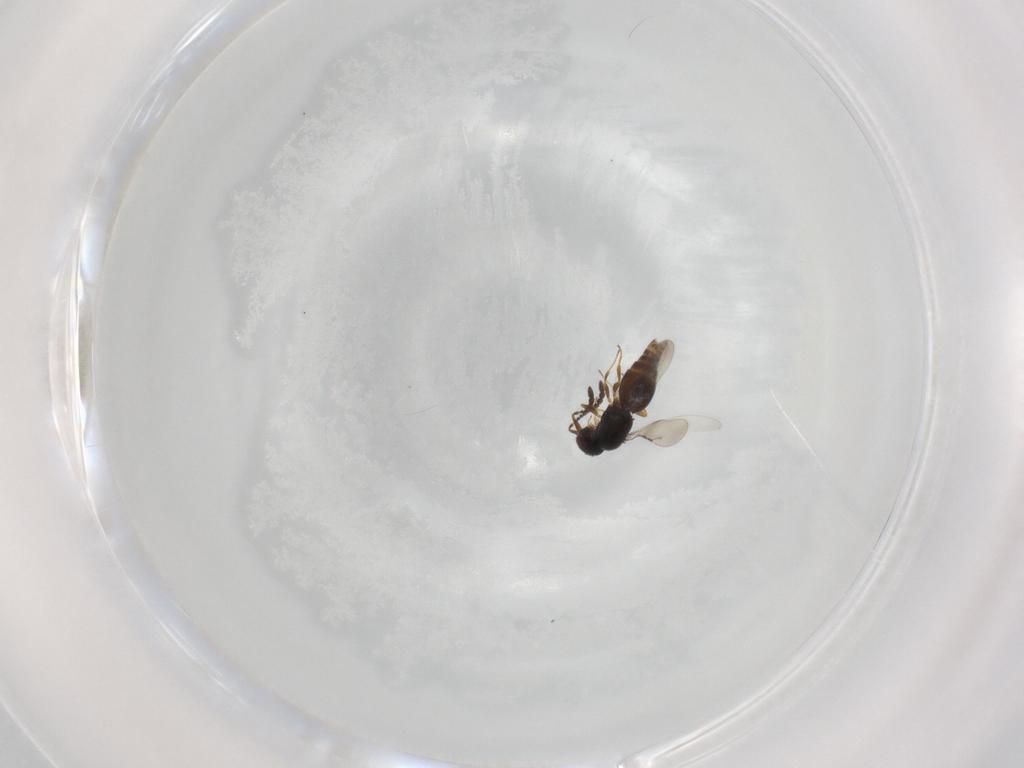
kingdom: Animalia
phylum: Arthropoda
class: Insecta
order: Hymenoptera
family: Ceraphronidae
